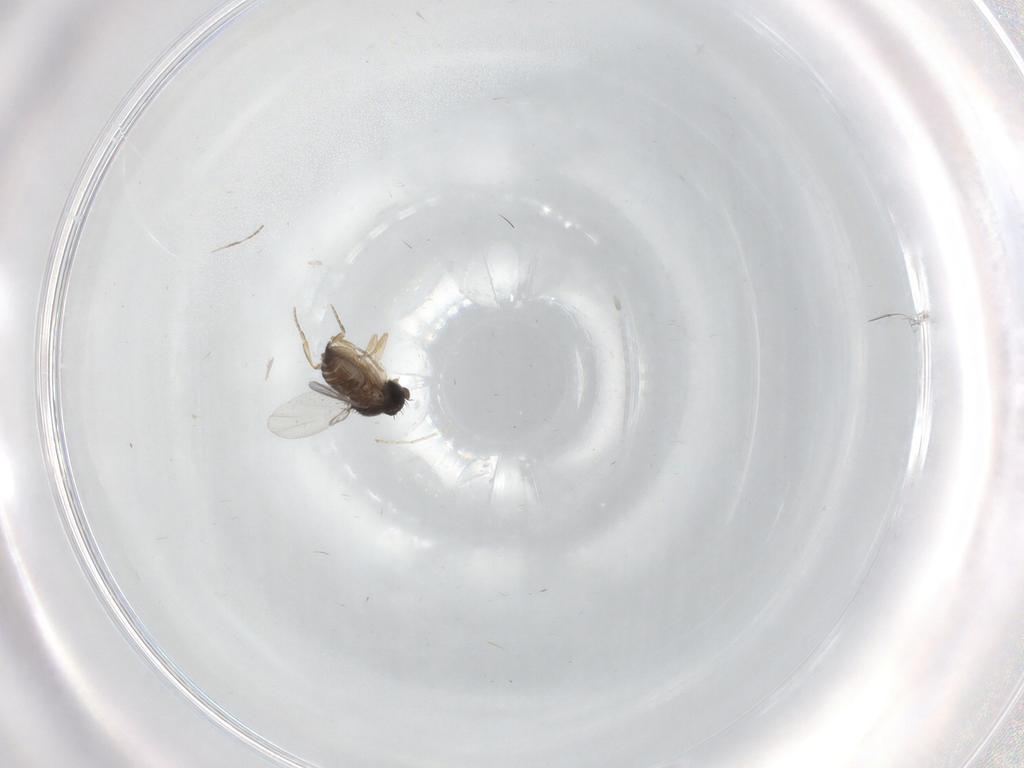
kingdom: Animalia
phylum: Arthropoda
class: Insecta
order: Diptera
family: Phoridae
